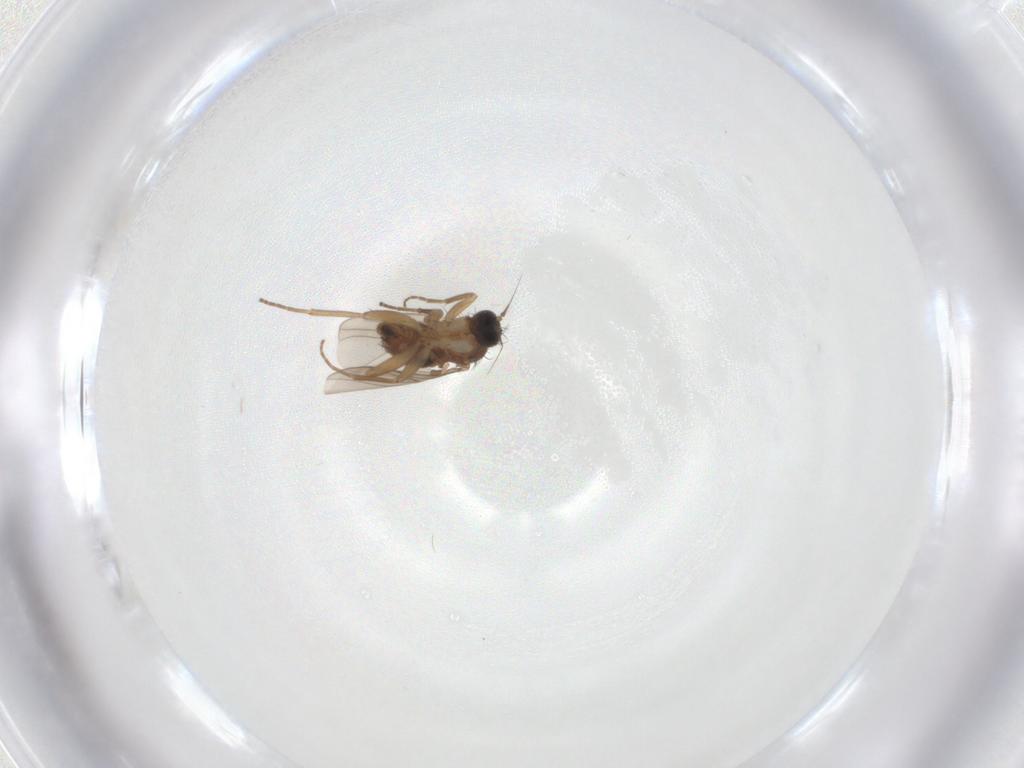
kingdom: Animalia
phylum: Arthropoda
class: Insecta
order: Diptera
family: Hybotidae
